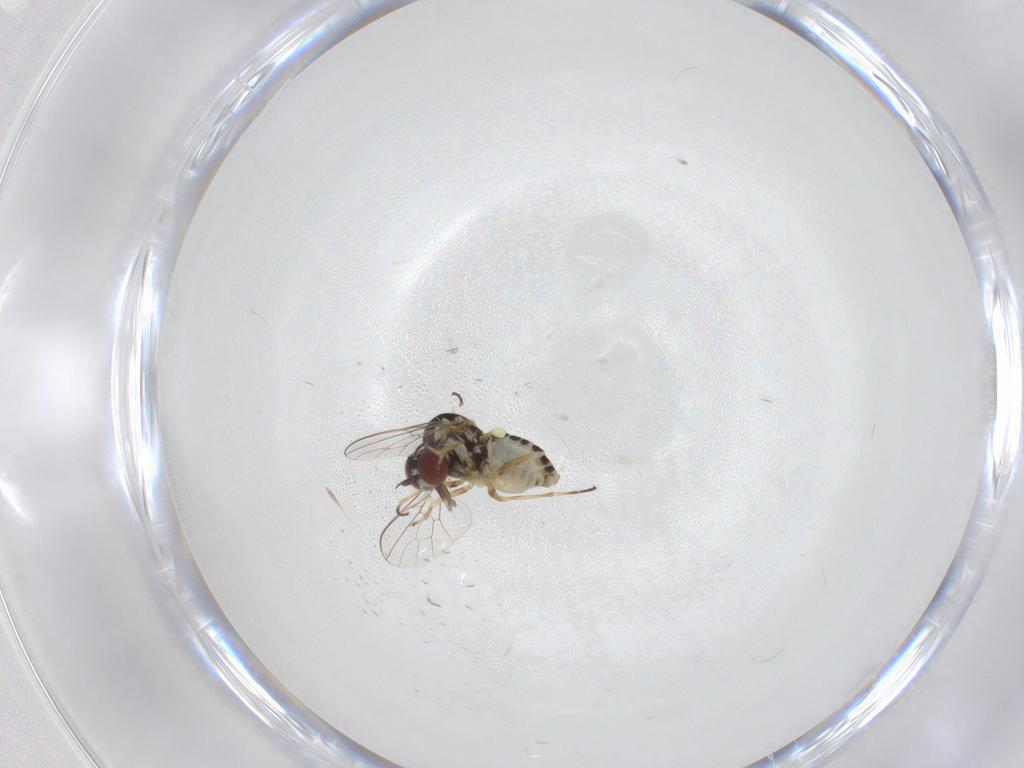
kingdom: Animalia
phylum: Arthropoda
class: Insecta
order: Diptera
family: Bombyliidae
